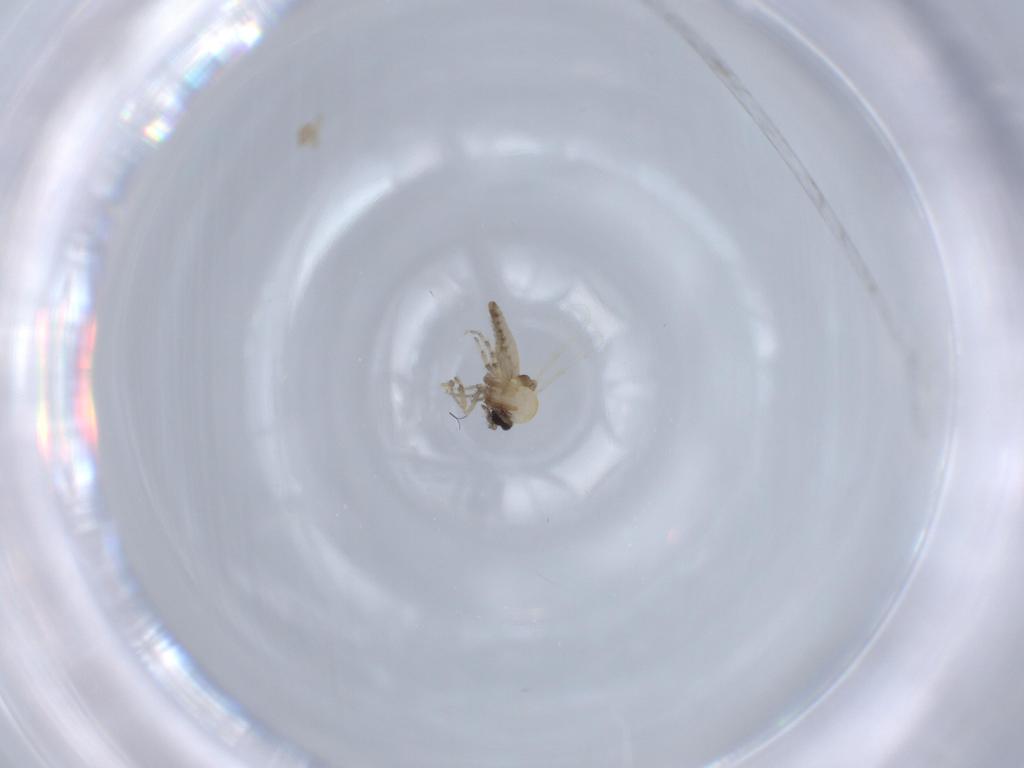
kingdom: Animalia
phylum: Arthropoda
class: Insecta
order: Diptera
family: Ceratopogonidae
